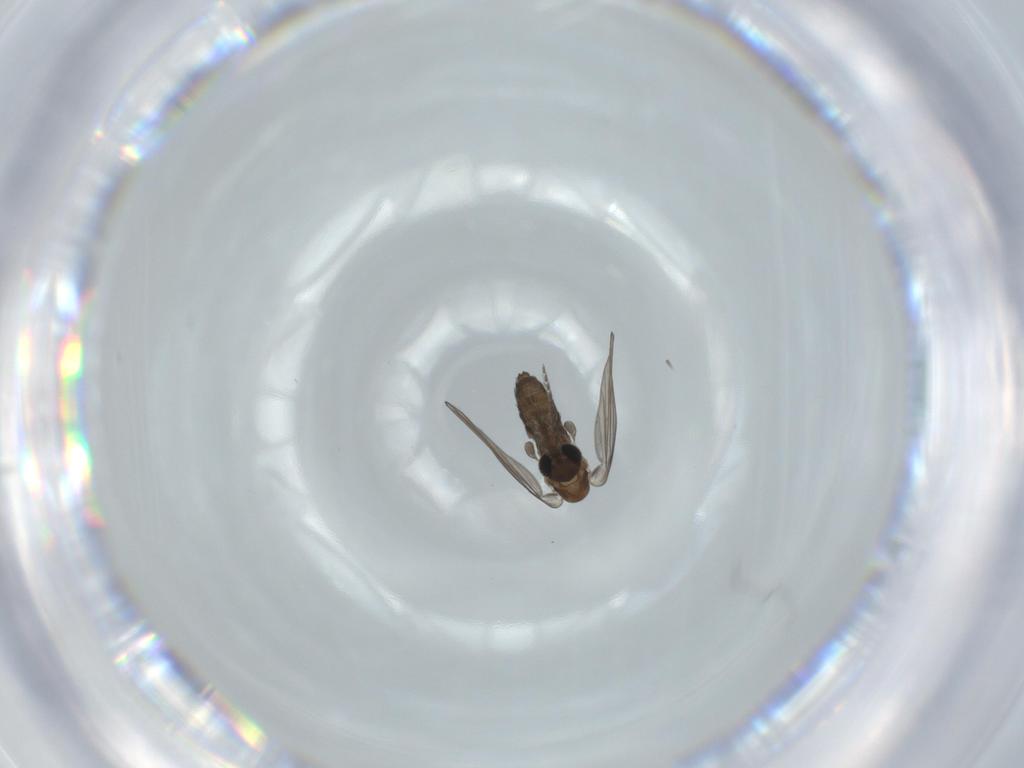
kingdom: Animalia
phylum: Arthropoda
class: Insecta
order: Diptera
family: Psychodidae
